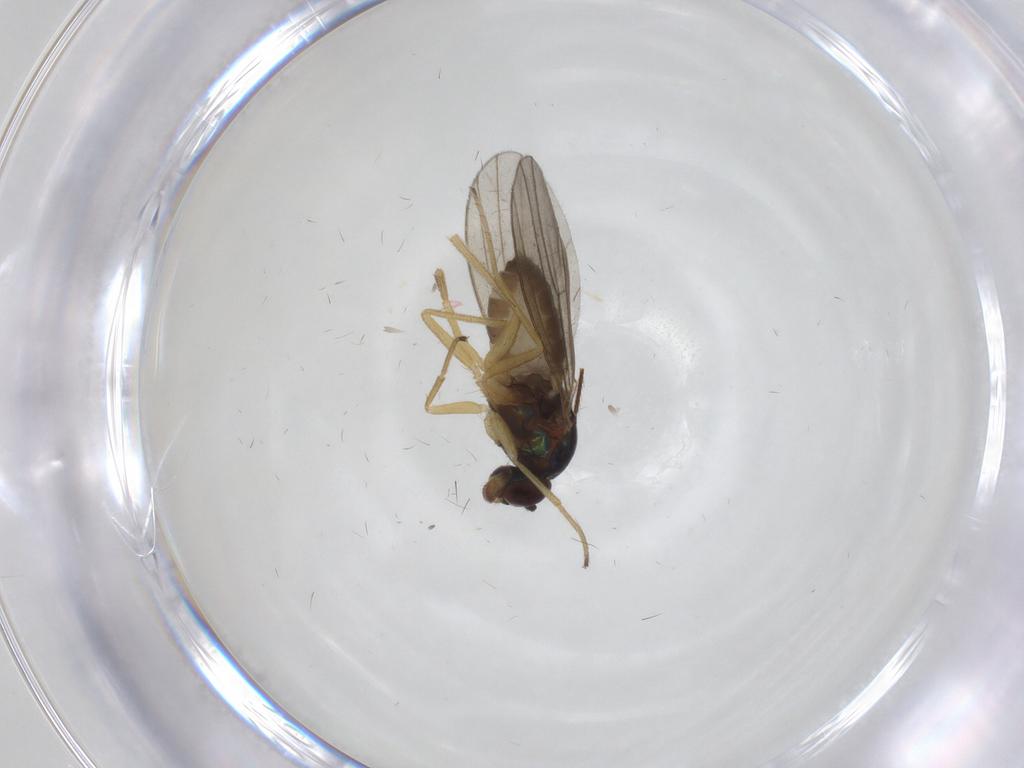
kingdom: Animalia
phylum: Arthropoda
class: Insecta
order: Diptera
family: Dolichopodidae
